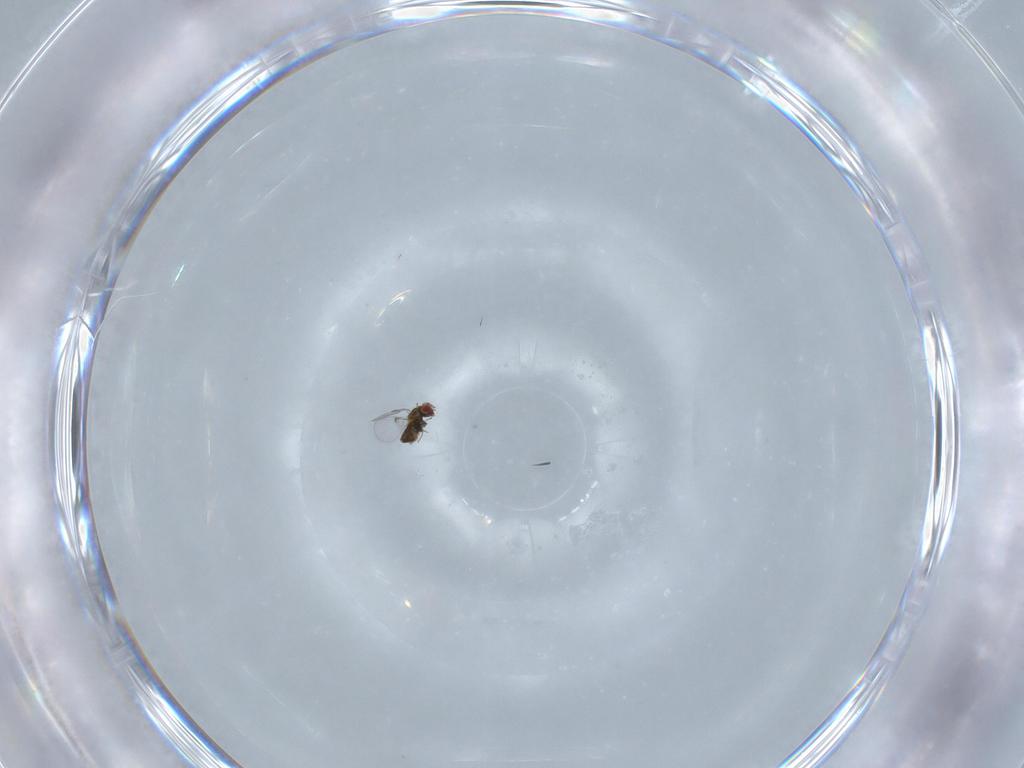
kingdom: Animalia
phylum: Arthropoda
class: Insecta
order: Hymenoptera
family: Trichogrammatidae
